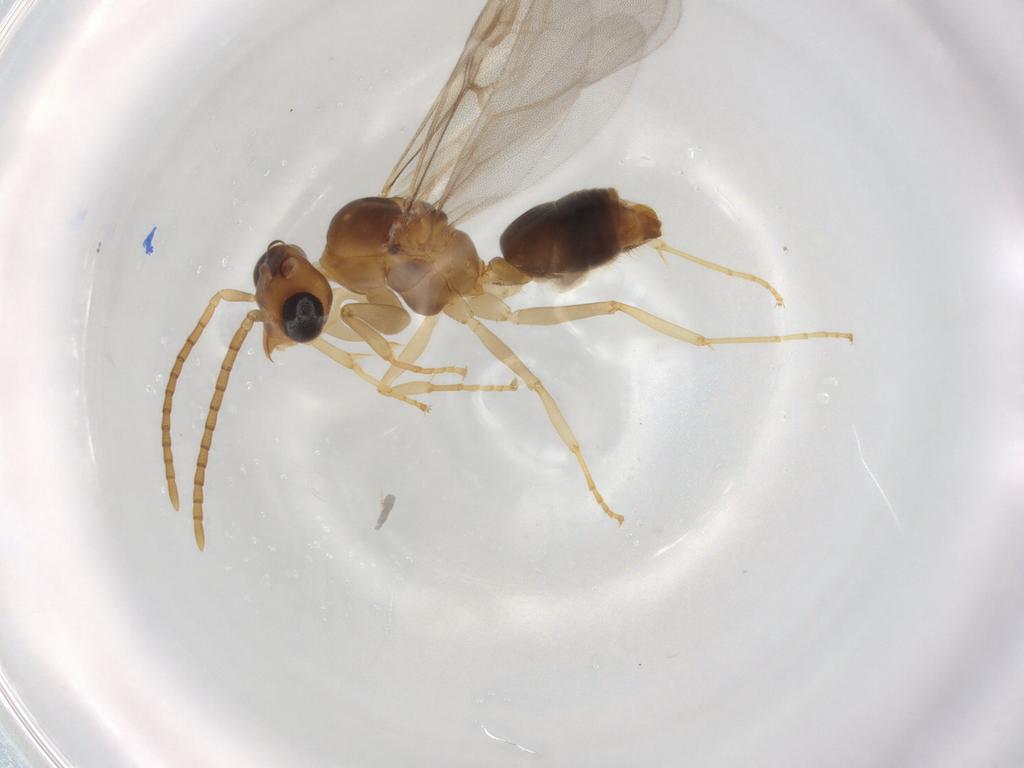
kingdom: Animalia
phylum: Arthropoda
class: Insecta
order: Hymenoptera
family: Ceraphronidae
